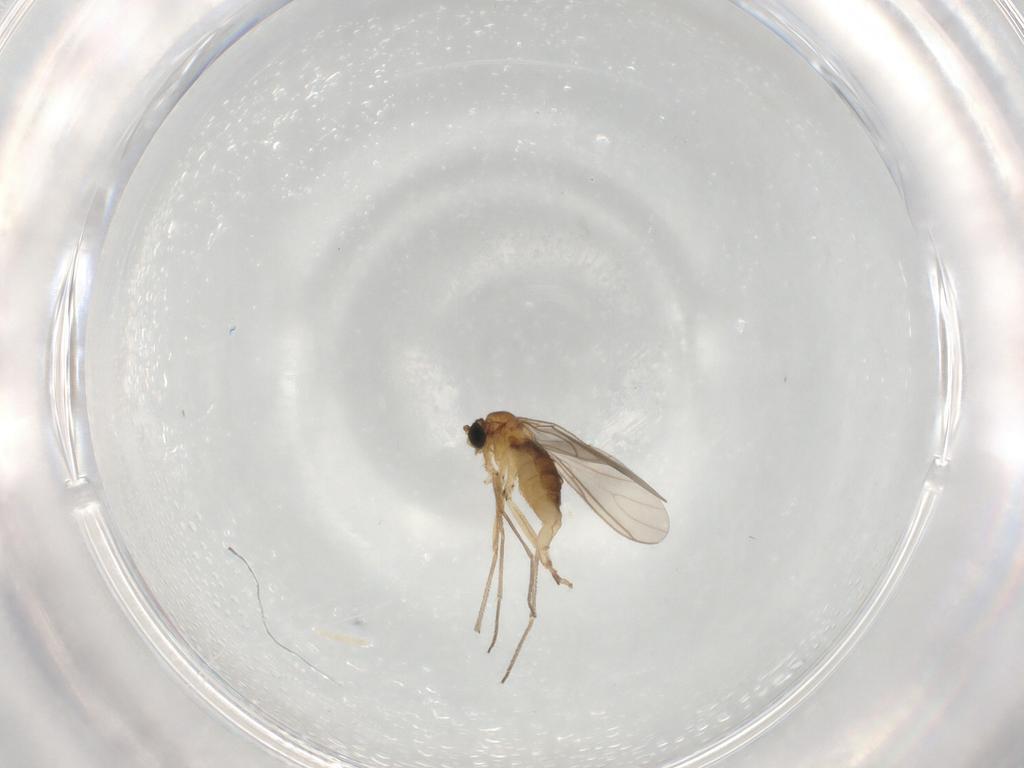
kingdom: Animalia
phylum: Arthropoda
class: Insecta
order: Diptera
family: Sciaridae
